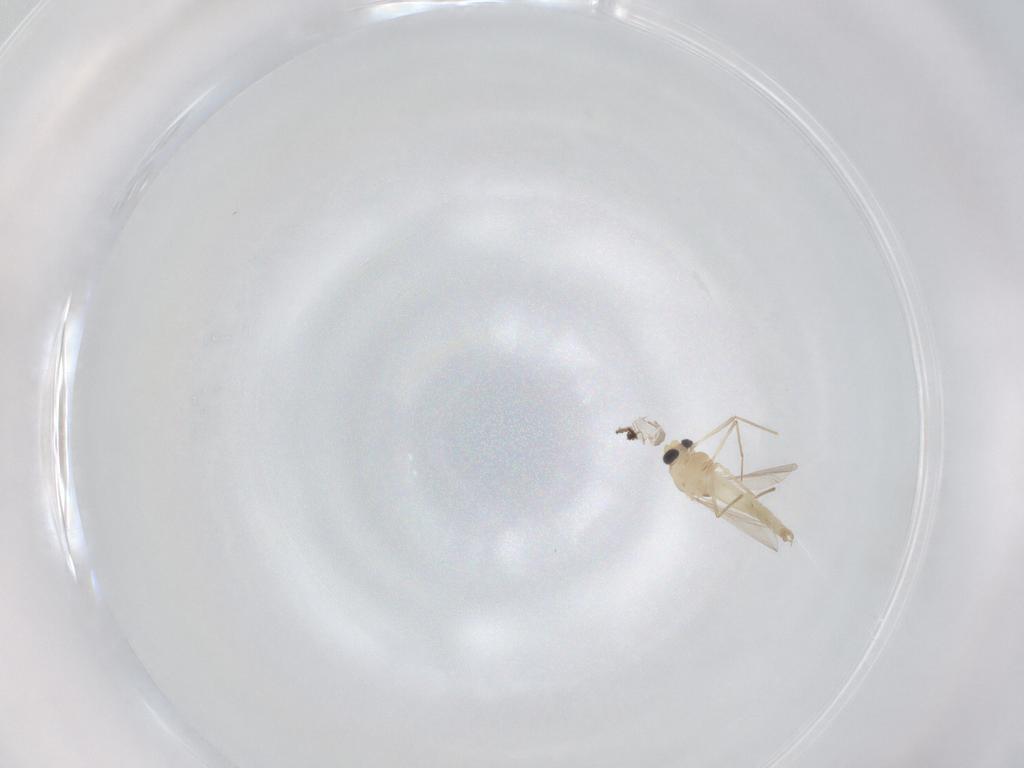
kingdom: Animalia
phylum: Arthropoda
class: Insecta
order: Diptera
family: Chironomidae
